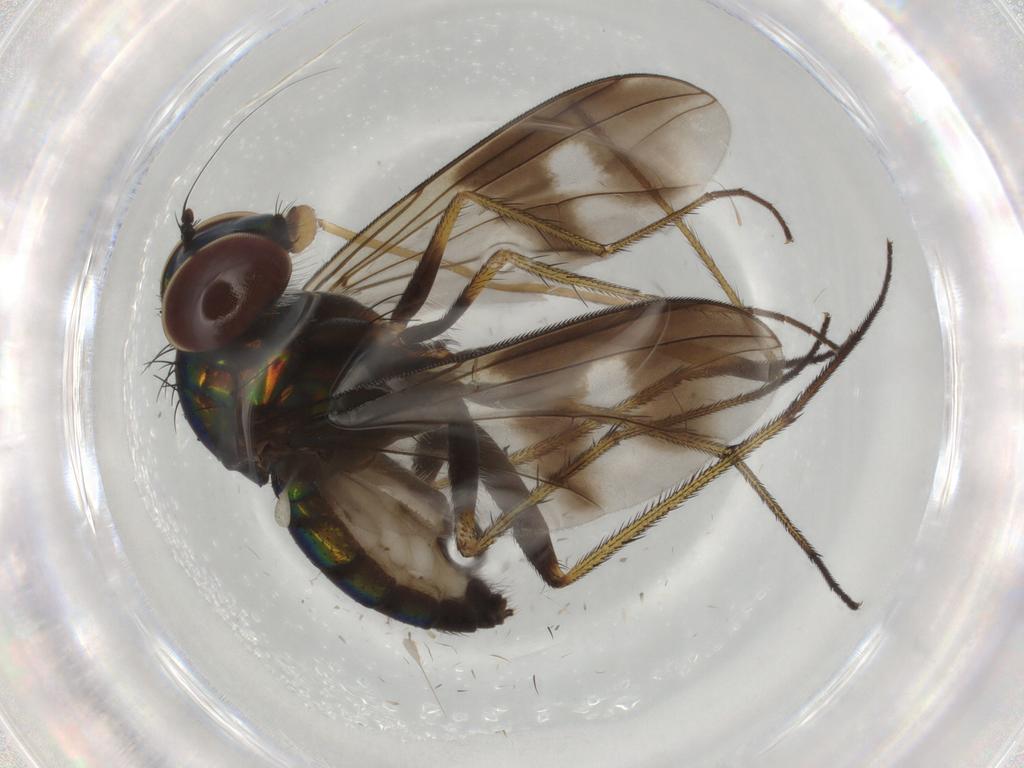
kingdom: Animalia
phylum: Arthropoda
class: Insecta
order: Diptera
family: Dolichopodidae
